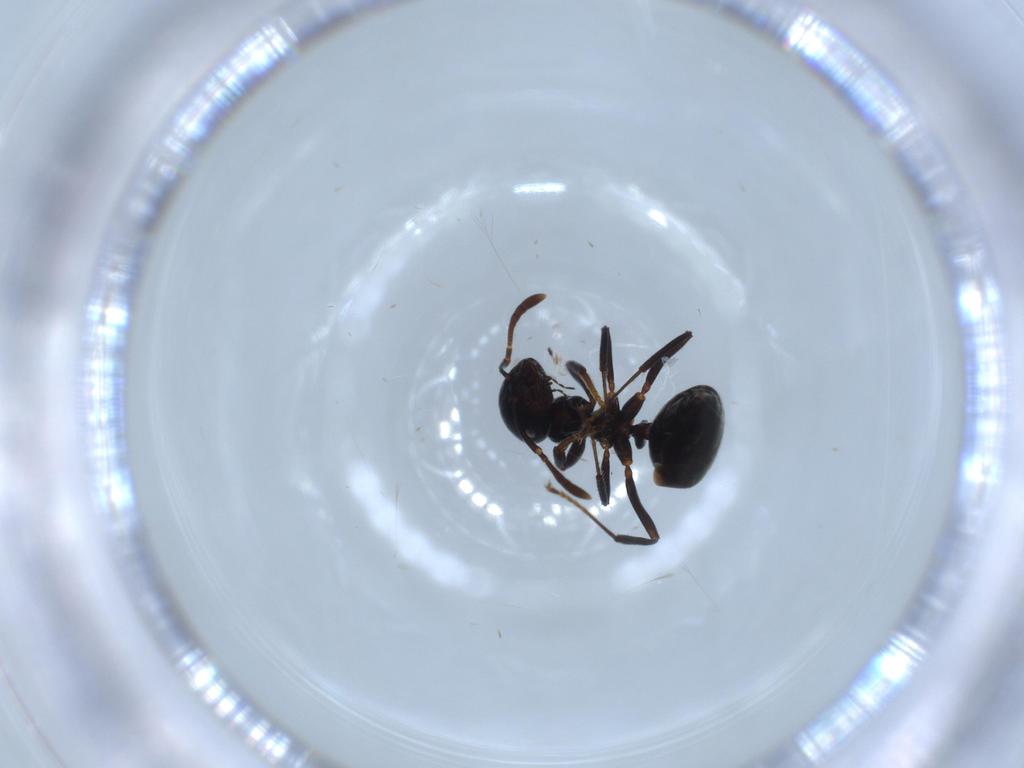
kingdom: Animalia
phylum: Arthropoda
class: Insecta
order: Hymenoptera
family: Formicidae
